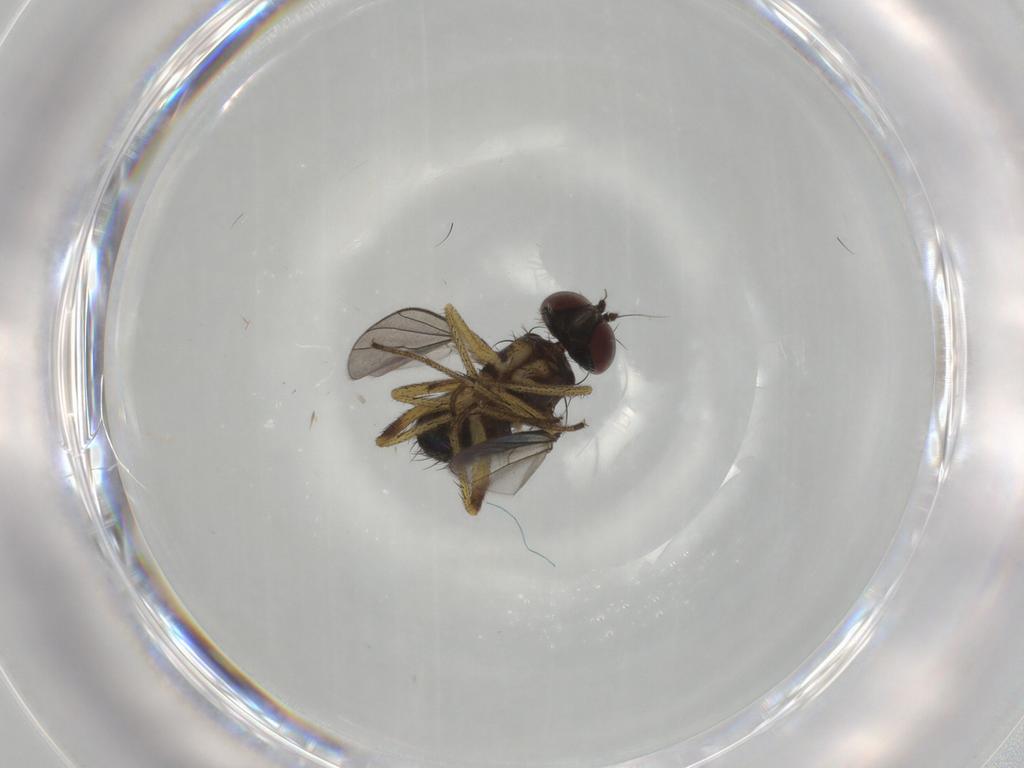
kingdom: Animalia
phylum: Arthropoda
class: Insecta
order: Diptera
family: Dolichopodidae
